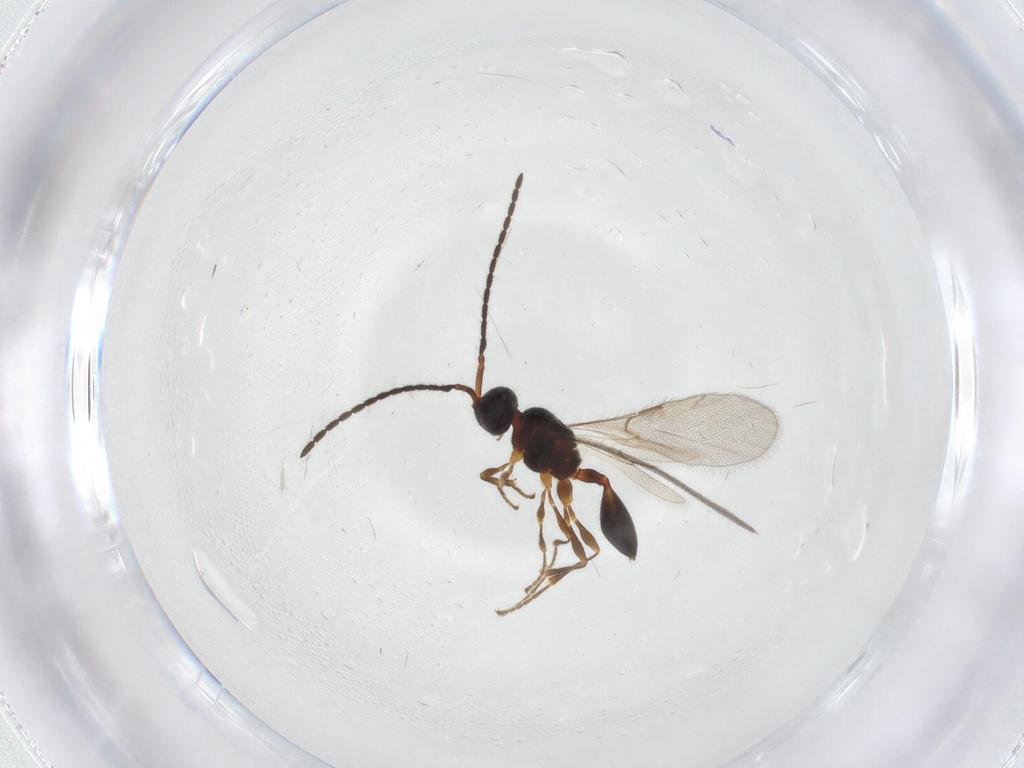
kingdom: Animalia
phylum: Arthropoda
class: Insecta
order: Hymenoptera
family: Diapriidae
